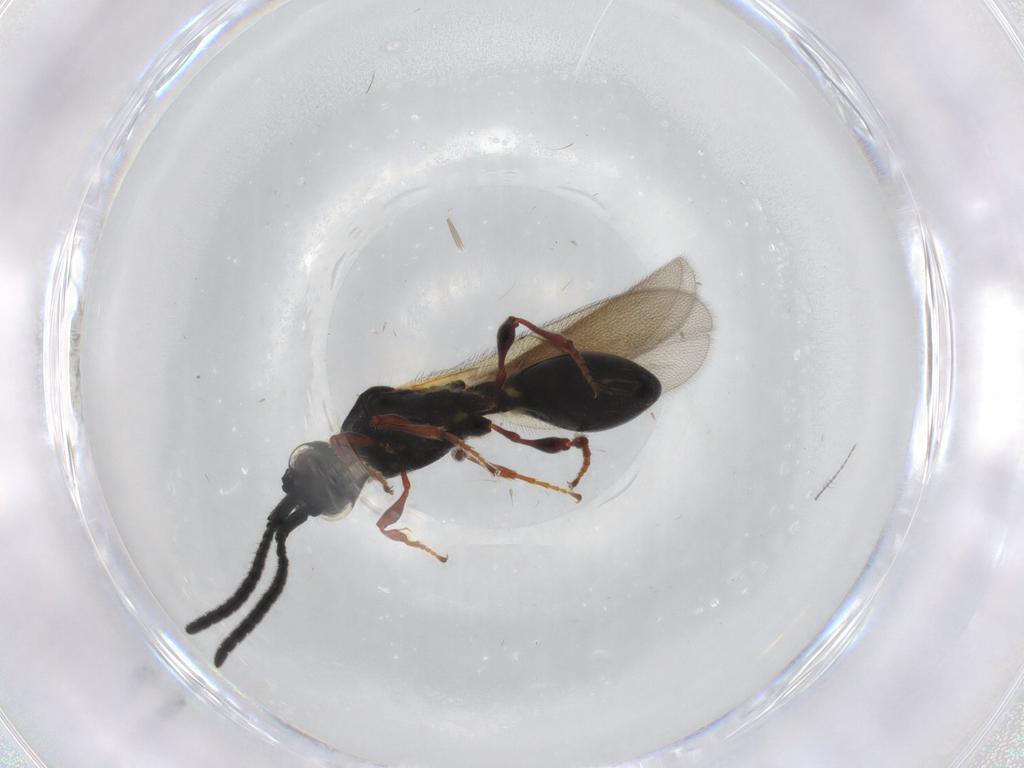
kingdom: Animalia
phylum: Arthropoda
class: Insecta
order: Hymenoptera
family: Diapriidae
